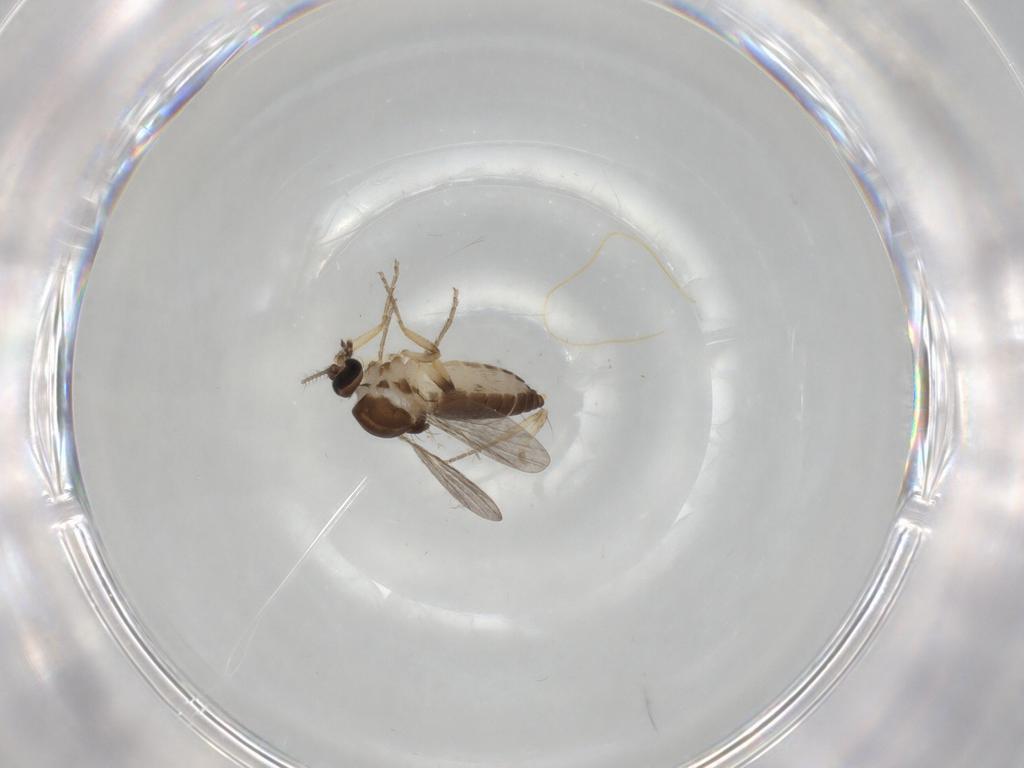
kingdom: Animalia
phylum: Arthropoda
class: Insecta
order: Diptera
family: Ceratopogonidae
